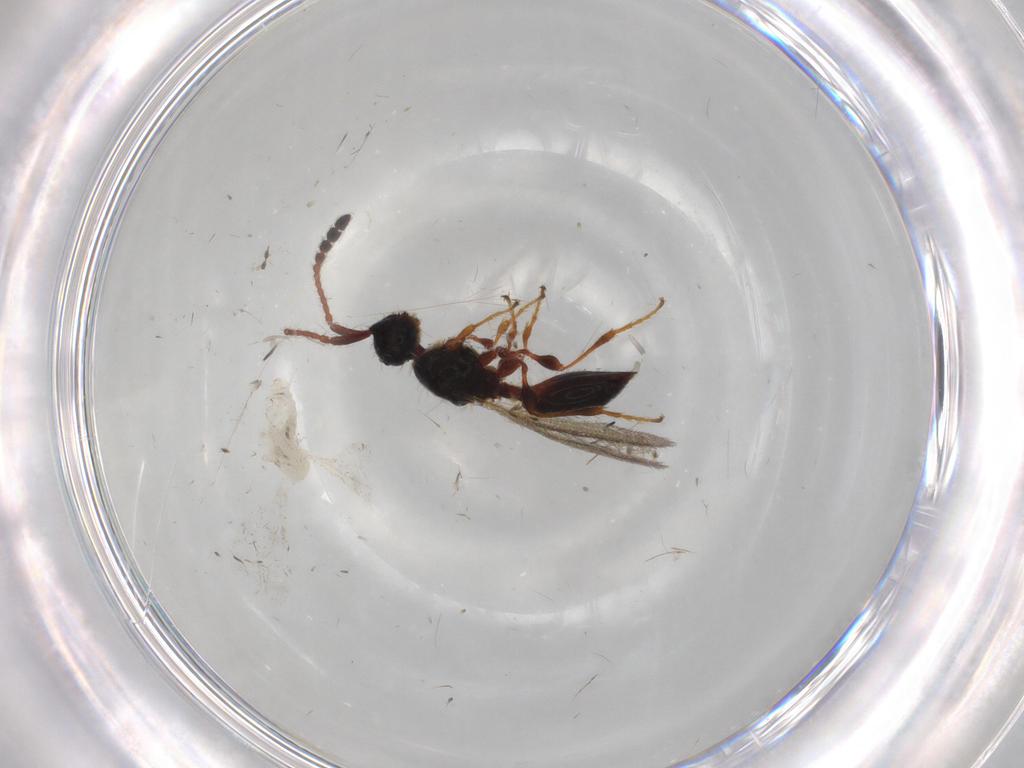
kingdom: Animalia
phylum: Arthropoda
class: Insecta
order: Hymenoptera
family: Diapriidae
